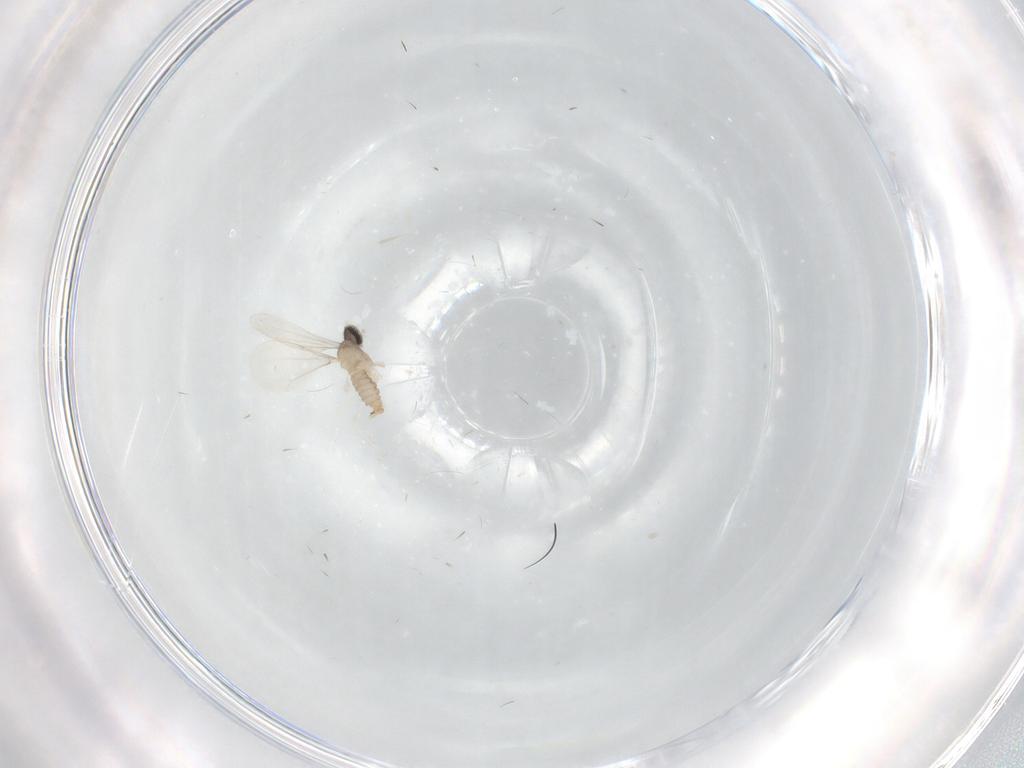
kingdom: Animalia
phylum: Arthropoda
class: Insecta
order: Diptera
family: Cecidomyiidae
